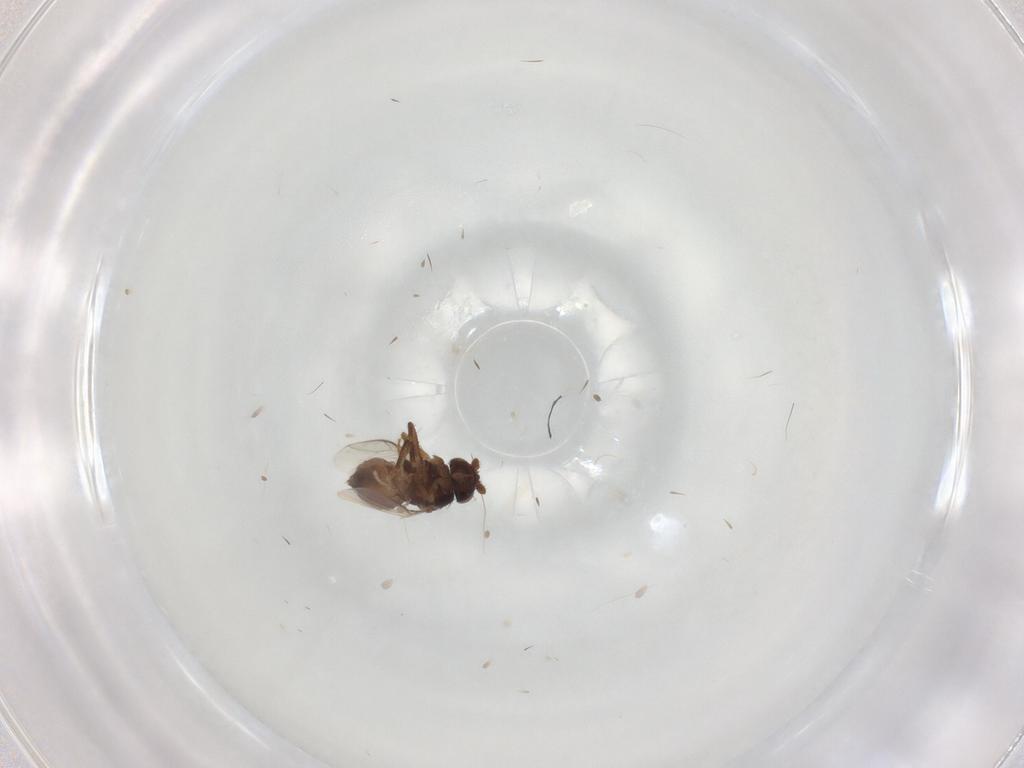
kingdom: Animalia
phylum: Arthropoda
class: Insecta
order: Diptera
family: Sphaeroceridae
